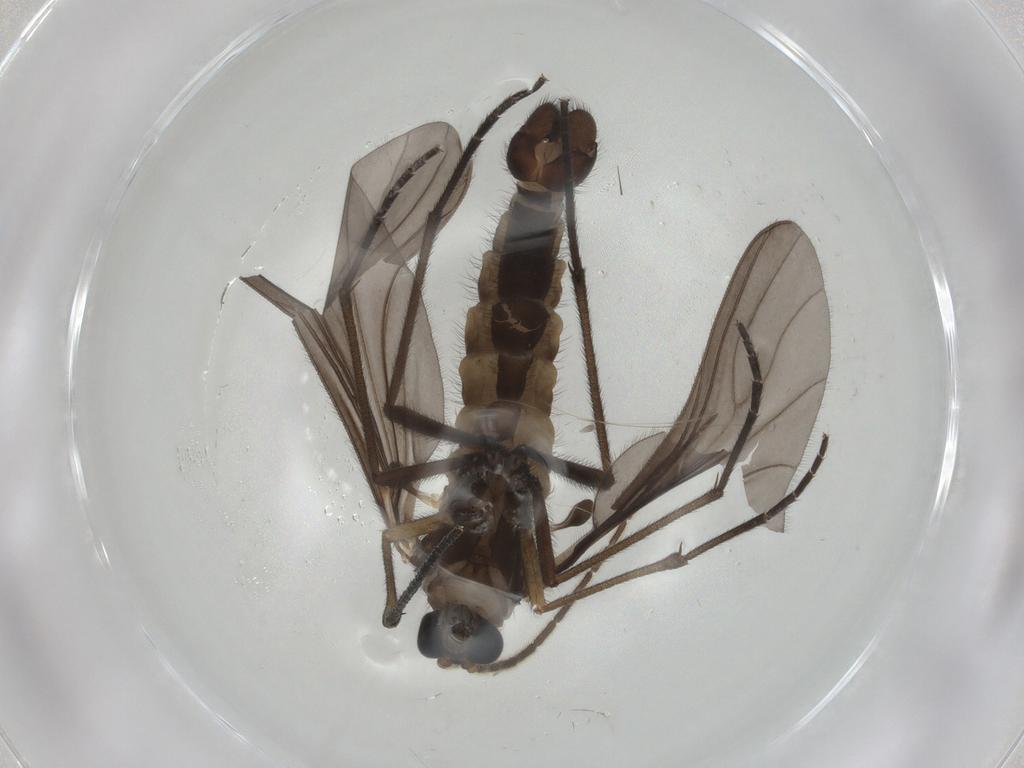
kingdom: Animalia
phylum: Arthropoda
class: Insecta
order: Diptera
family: Sciaridae
